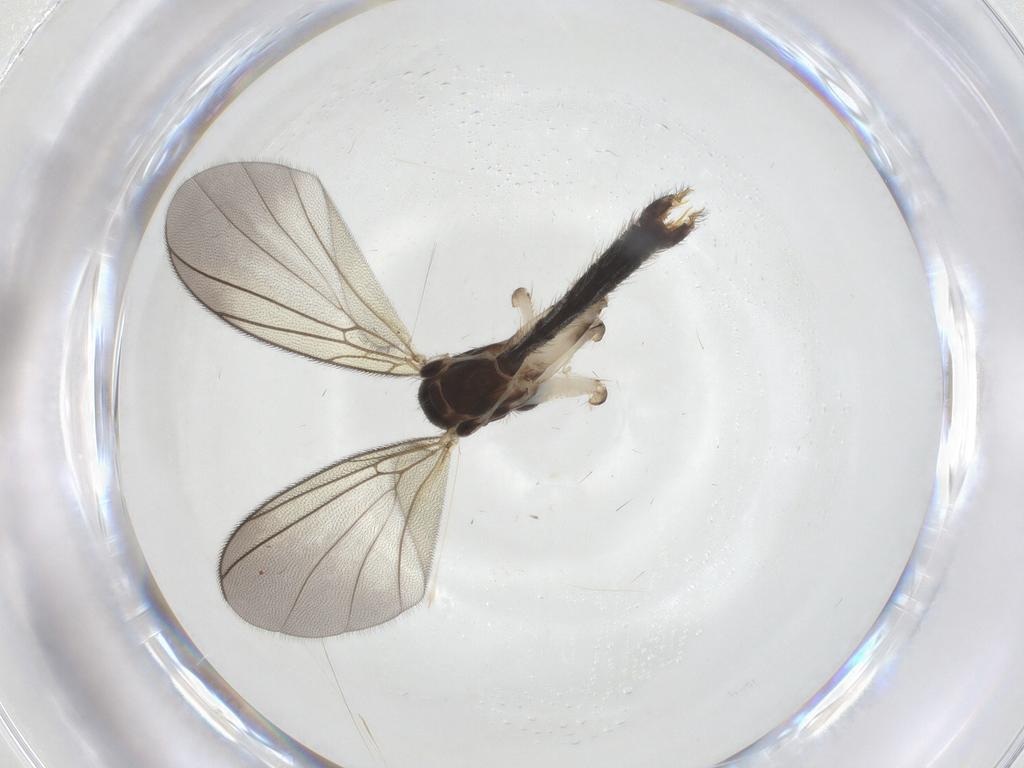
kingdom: Animalia
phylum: Arthropoda
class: Insecta
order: Diptera
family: Mycetophilidae
